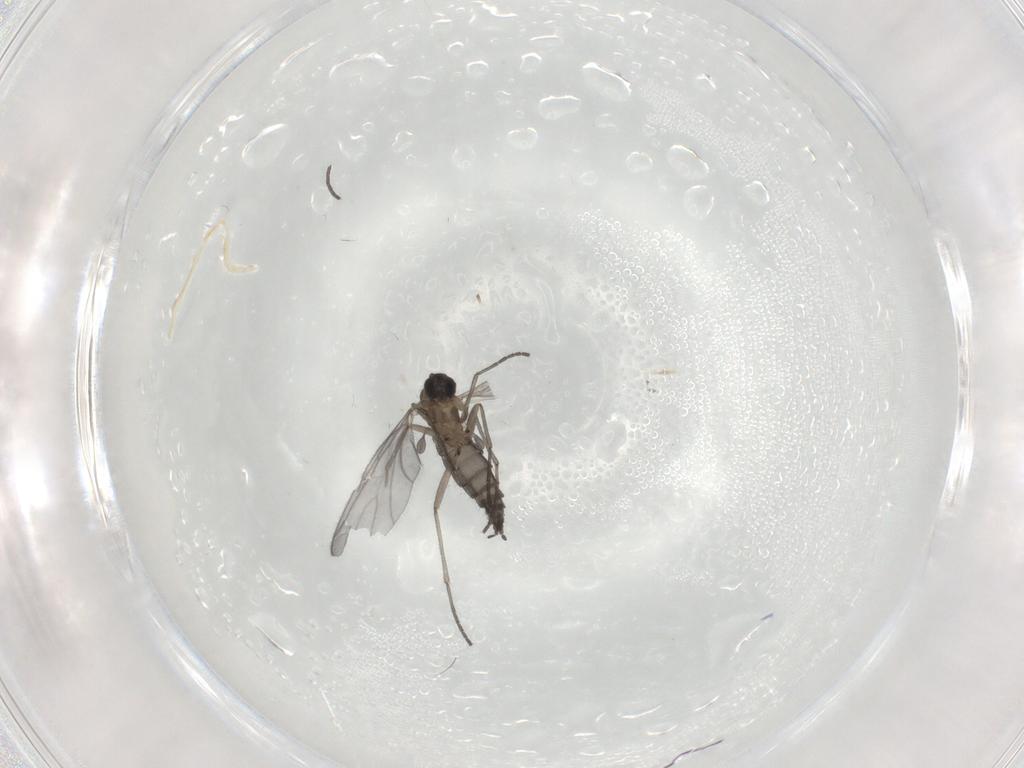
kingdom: Animalia
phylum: Arthropoda
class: Insecta
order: Diptera
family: Sciaridae
